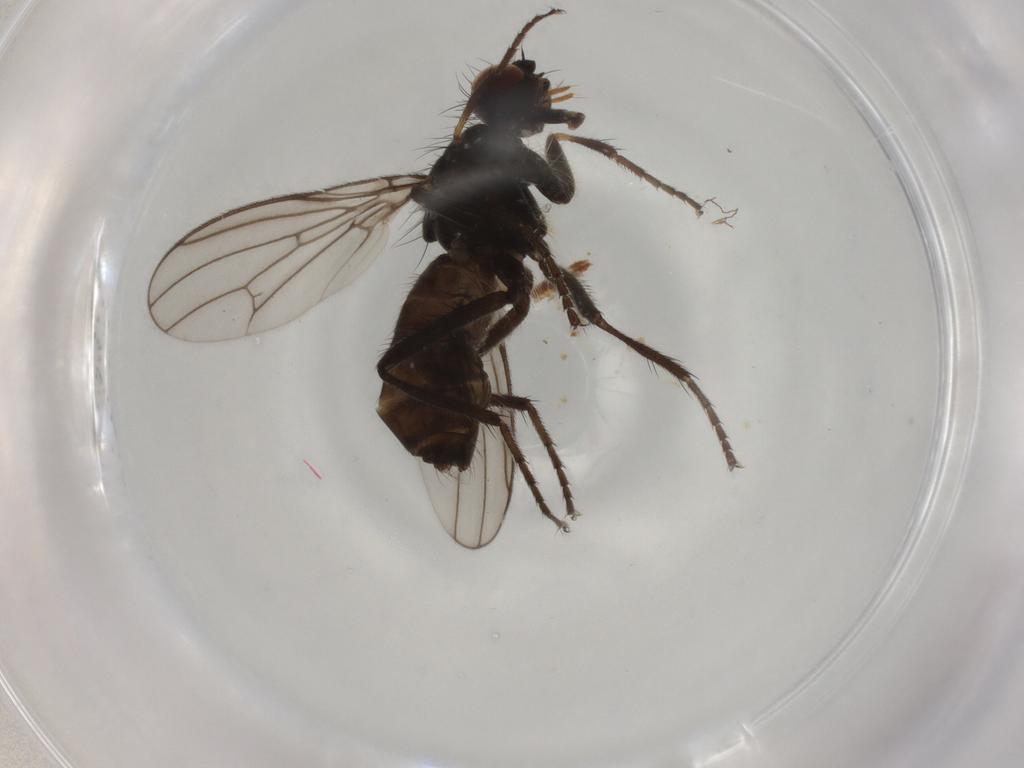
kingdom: Animalia
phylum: Arthropoda
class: Insecta
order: Diptera
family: Scathophagidae
